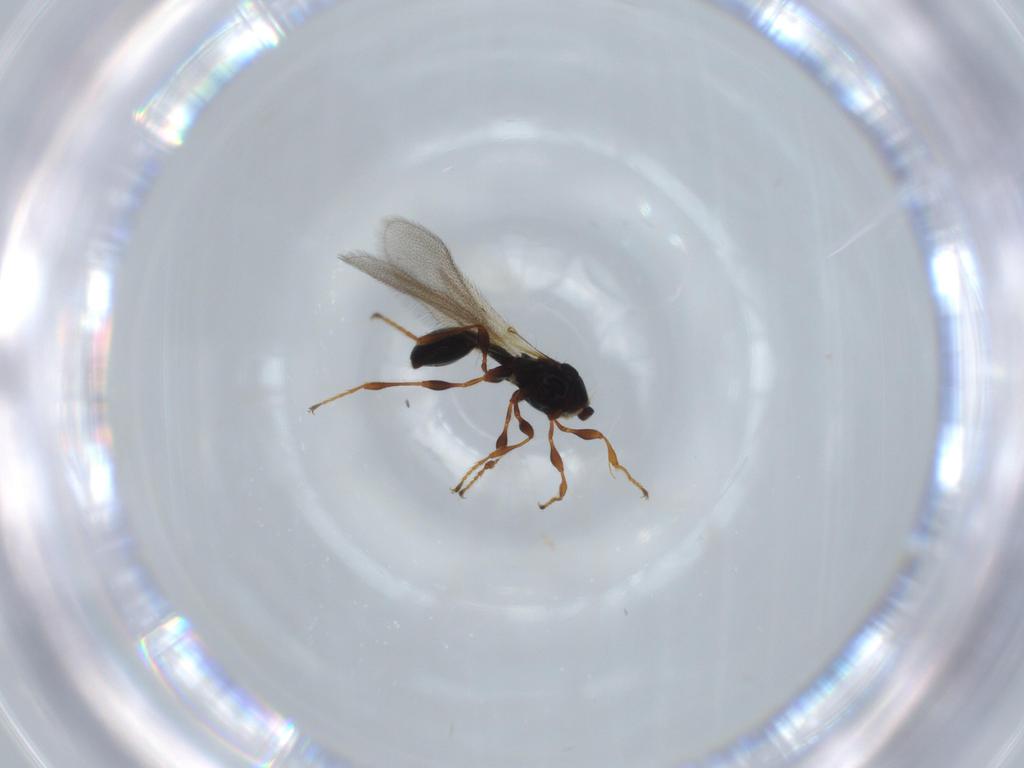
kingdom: Animalia
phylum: Arthropoda
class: Insecta
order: Hymenoptera
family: Diapriidae
